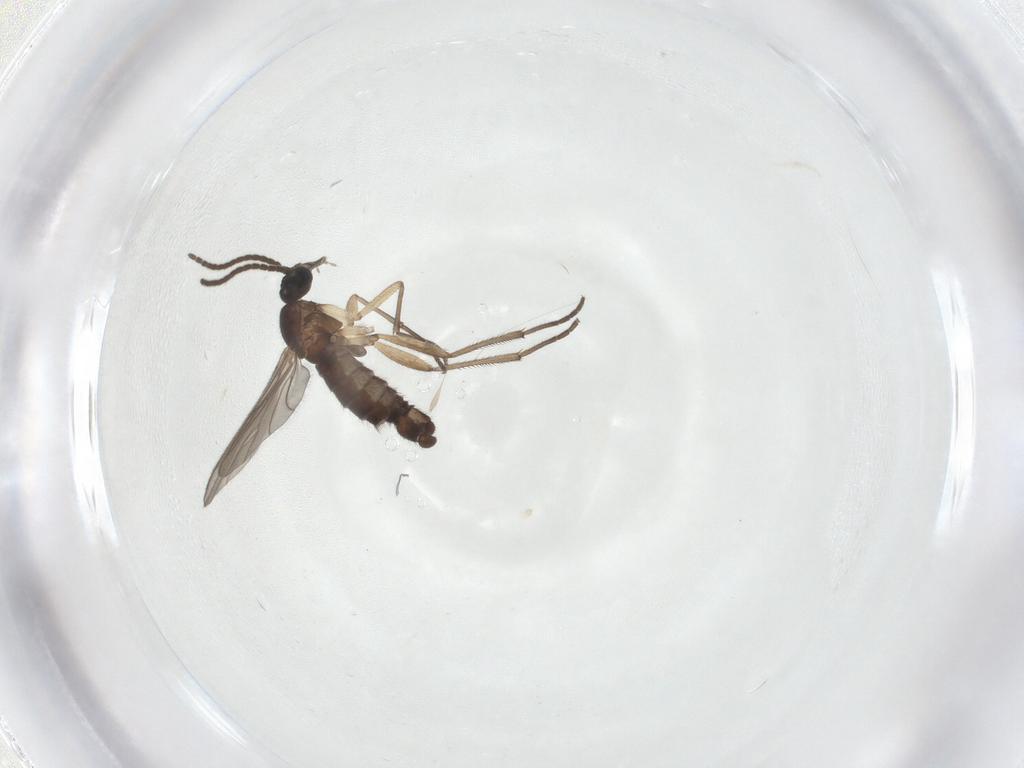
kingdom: Animalia
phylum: Arthropoda
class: Insecta
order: Diptera
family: Sciaridae
